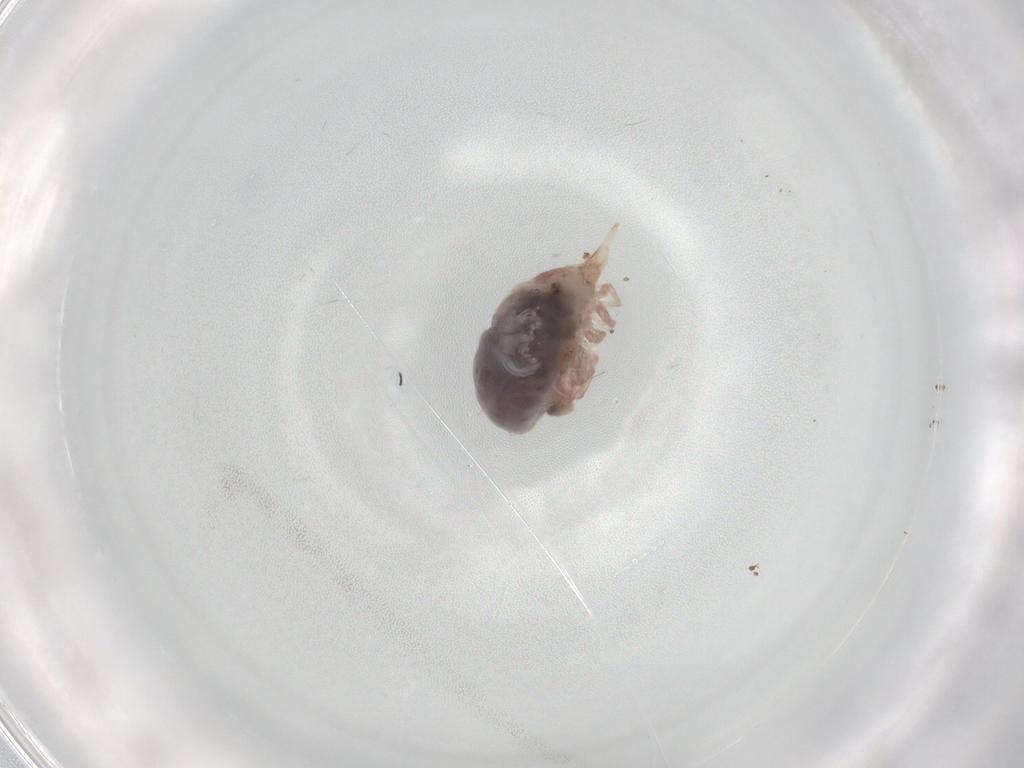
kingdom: Animalia
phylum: Arthropoda
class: Arachnida
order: Trombidiformes
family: Eupodidae
